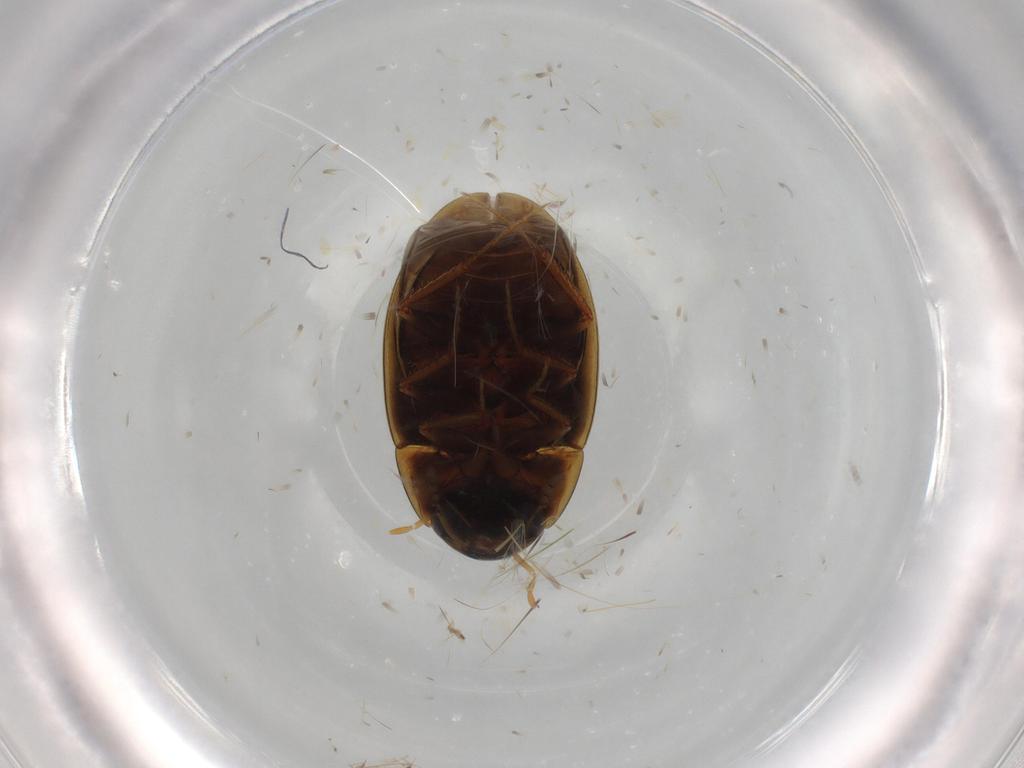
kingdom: Animalia
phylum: Arthropoda
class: Insecta
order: Coleoptera
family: Hydrophilidae
